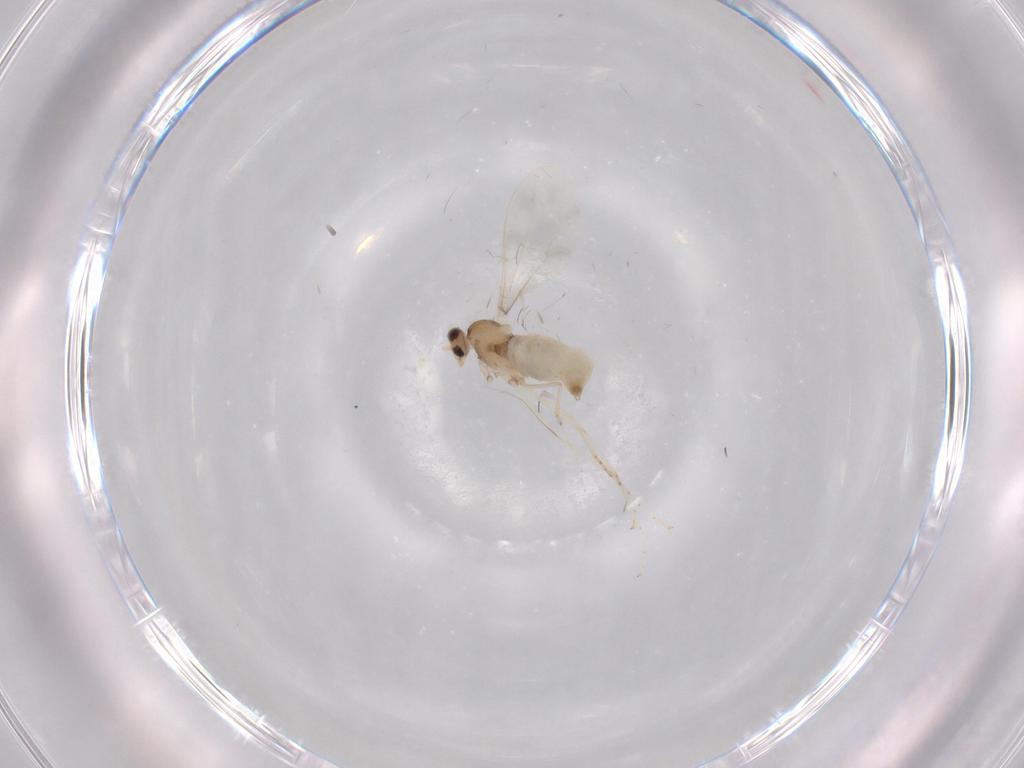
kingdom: Animalia
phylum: Arthropoda
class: Insecta
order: Diptera
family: Cecidomyiidae
